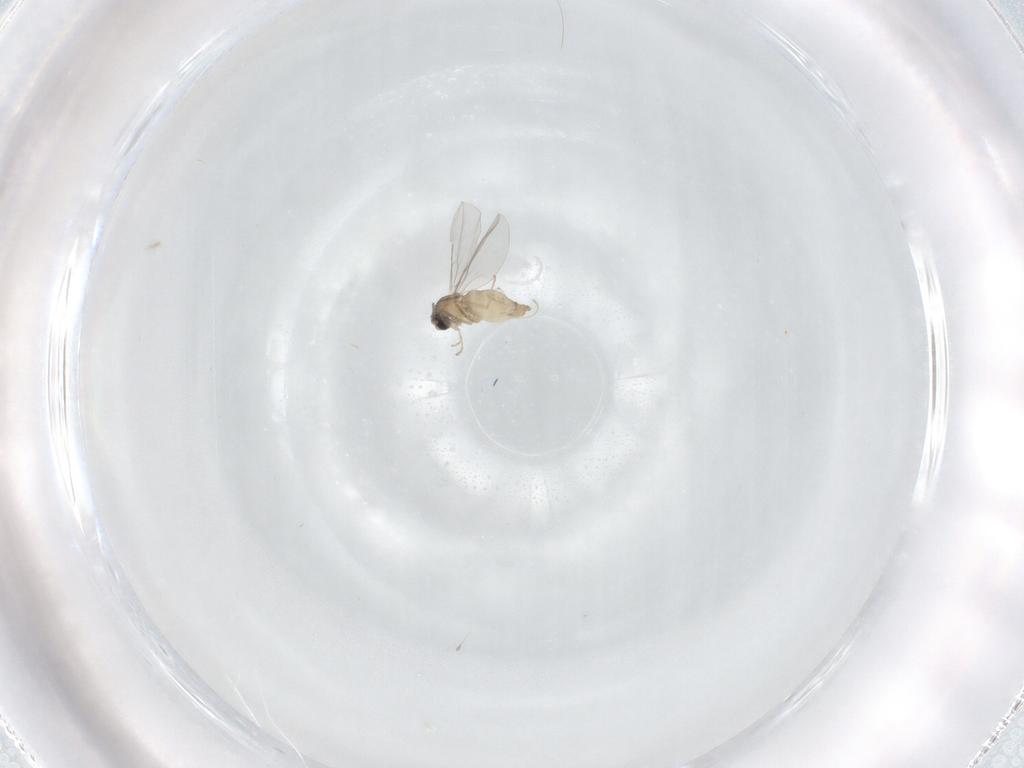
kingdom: Animalia
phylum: Arthropoda
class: Insecta
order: Diptera
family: Cecidomyiidae
